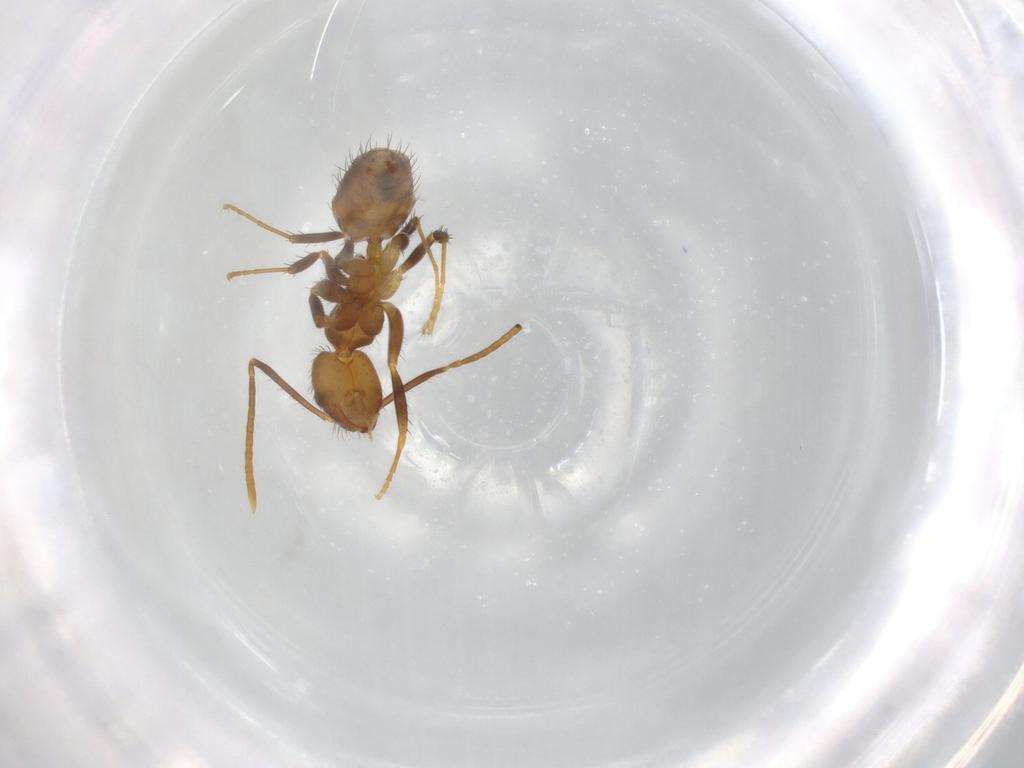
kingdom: Animalia
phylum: Arthropoda
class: Insecta
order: Hymenoptera
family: Formicidae
